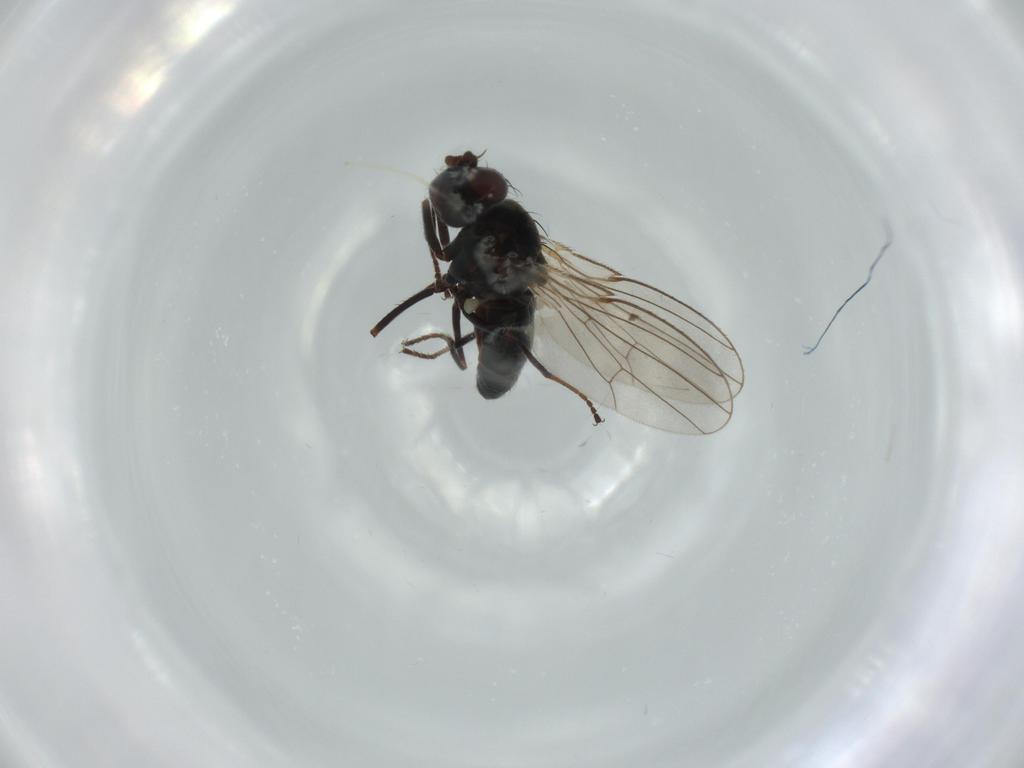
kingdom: Animalia
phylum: Arthropoda
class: Insecta
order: Diptera
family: Ephydridae
